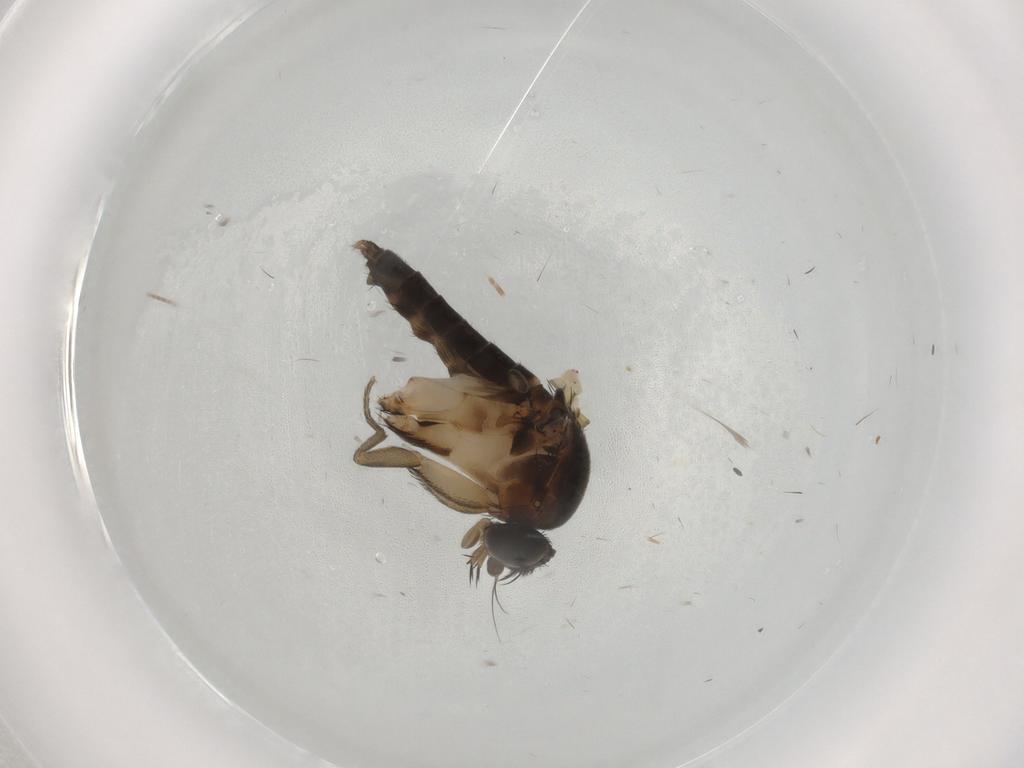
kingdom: Animalia
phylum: Arthropoda
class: Insecta
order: Diptera
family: Phoridae
